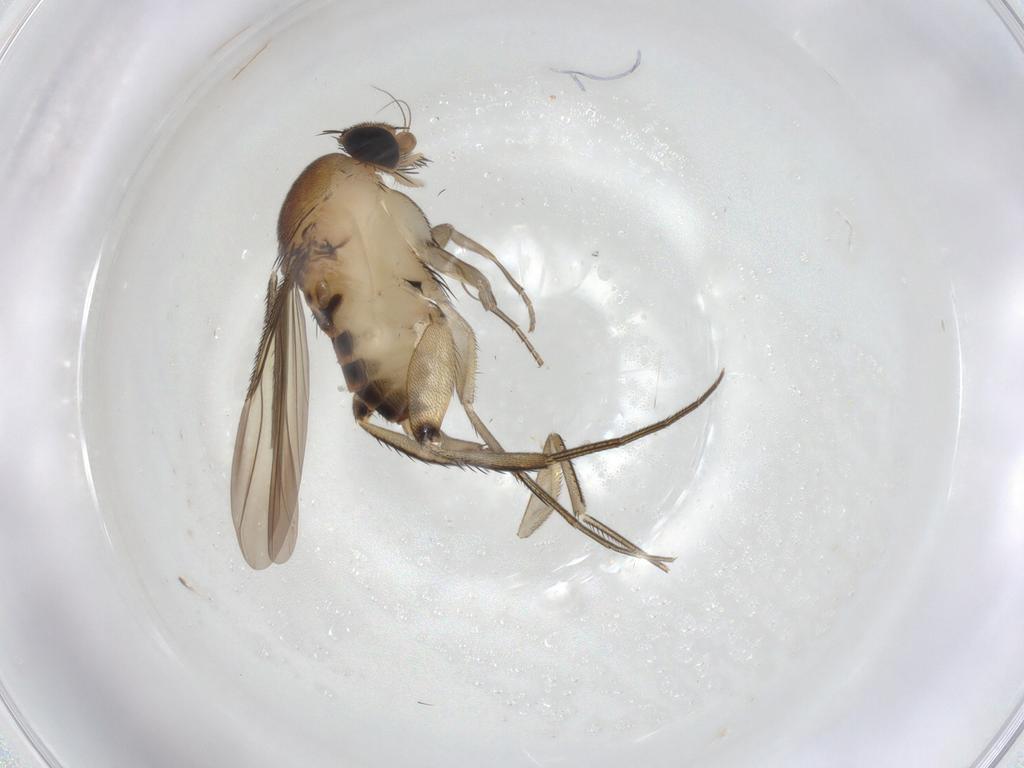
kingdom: Animalia
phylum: Arthropoda
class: Insecta
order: Diptera
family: Phoridae
